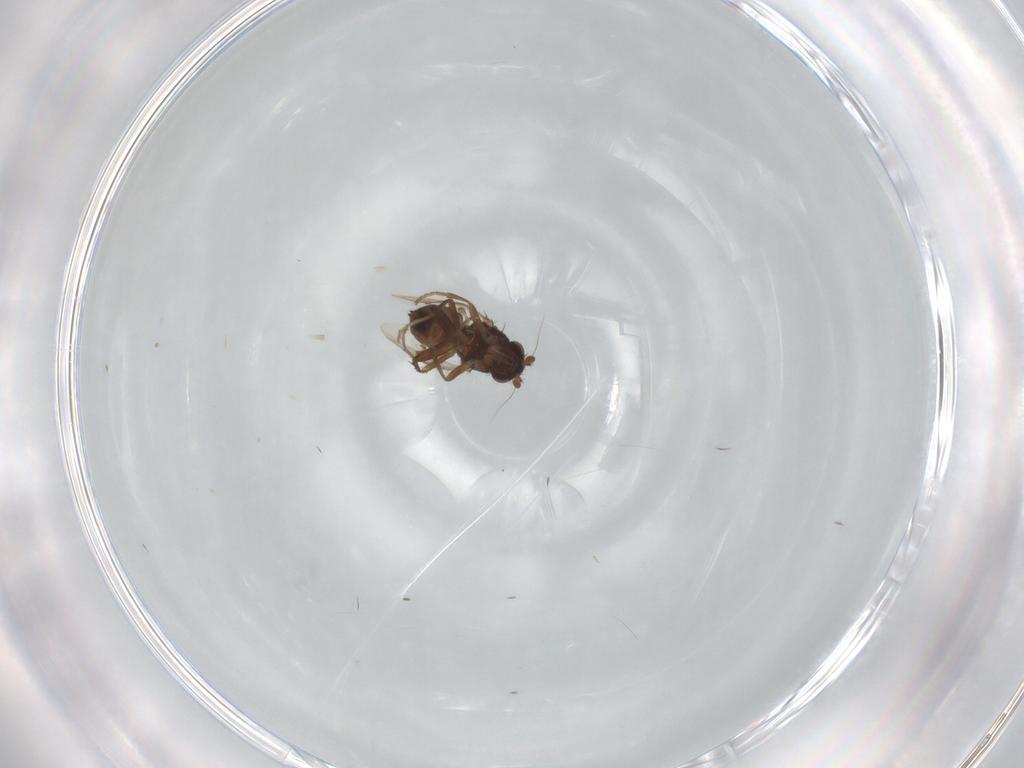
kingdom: Animalia
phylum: Arthropoda
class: Insecta
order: Diptera
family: Sphaeroceridae
